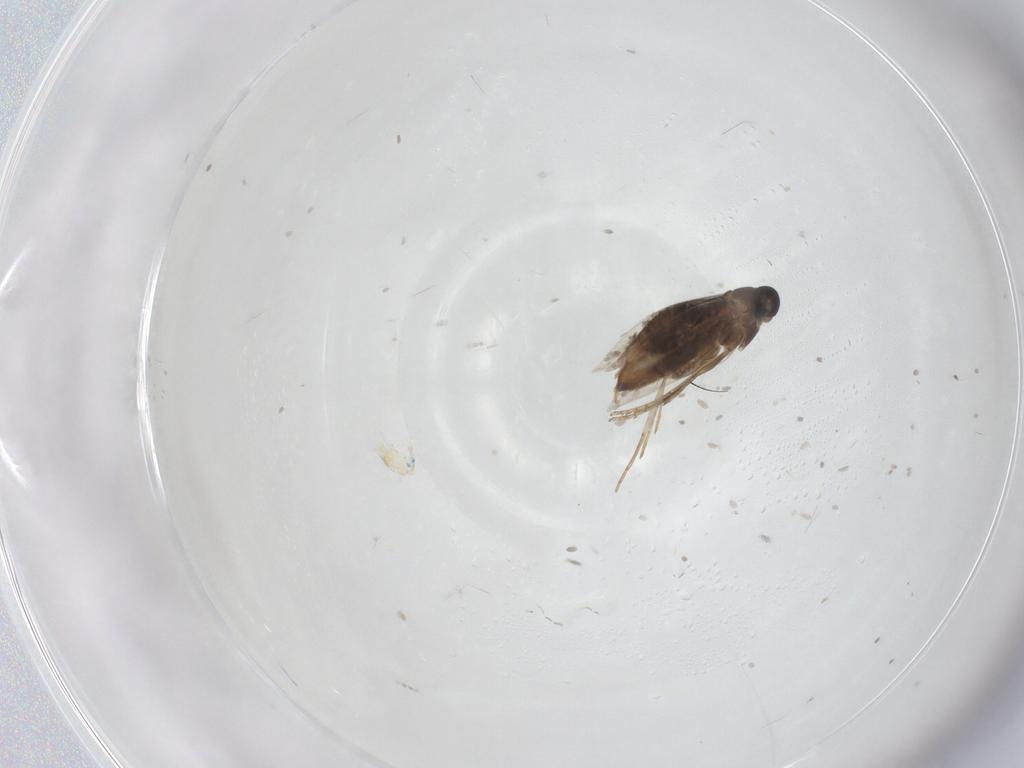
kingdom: Animalia
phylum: Arthropoda
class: Insecta
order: Lepidoptera
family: Heliozelidae
